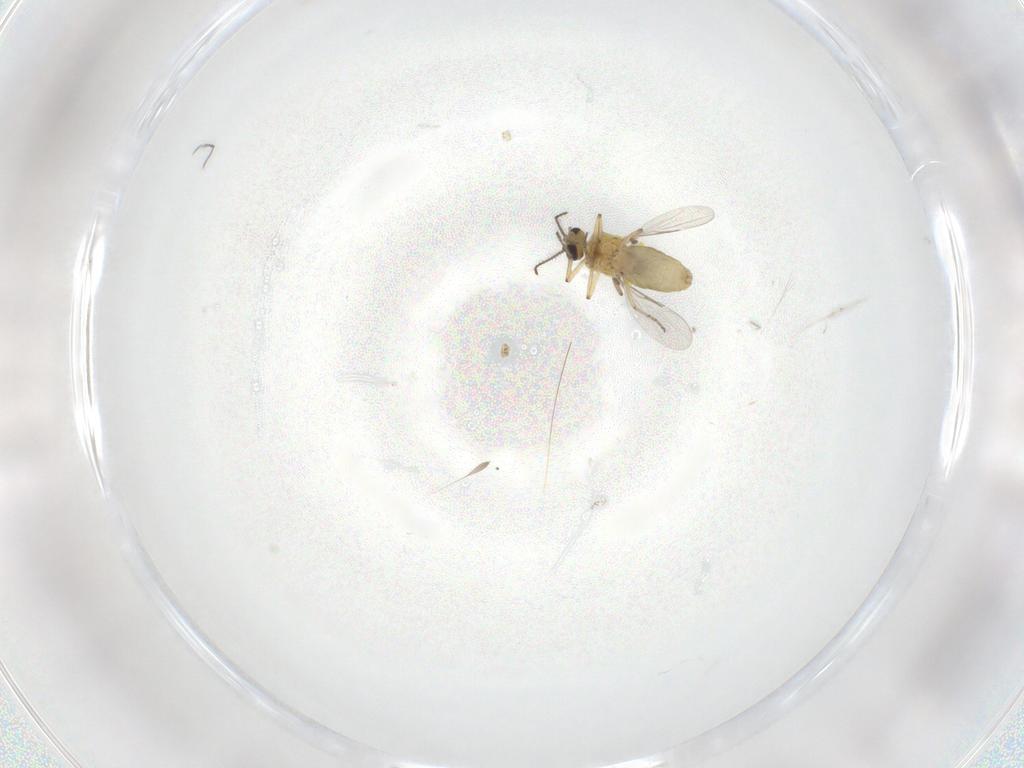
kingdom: Animalia
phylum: Arthropoda
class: Insecta
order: Diptera
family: Ceratopogonidae
